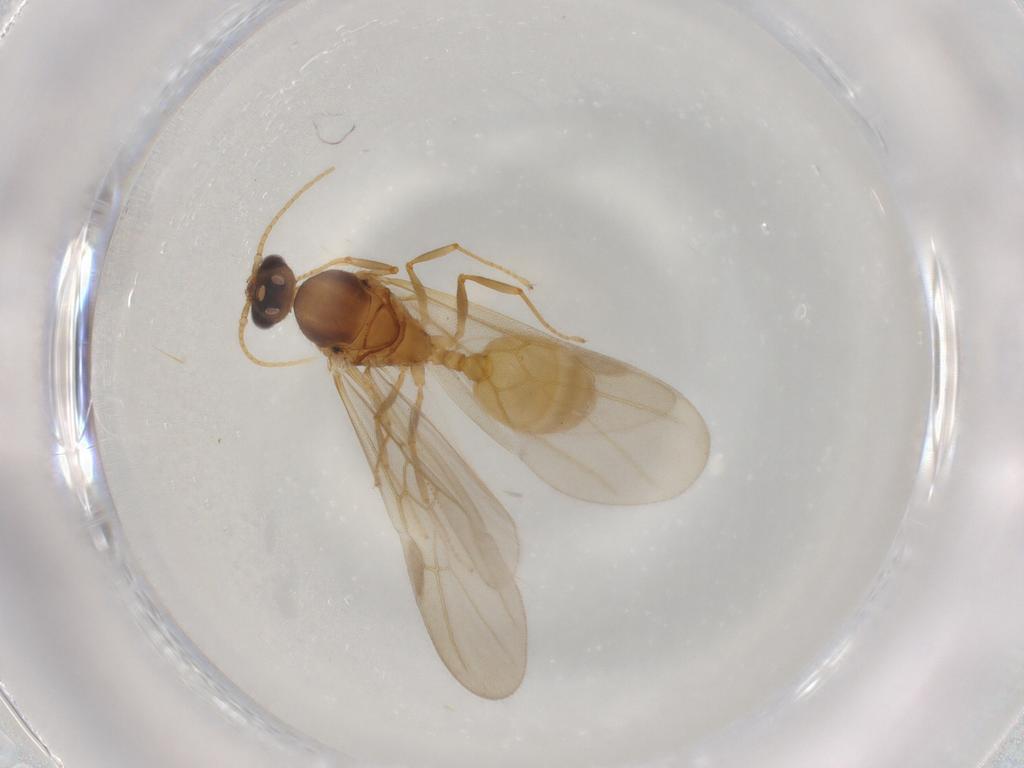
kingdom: Animalia
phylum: Arthropoda
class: Insecta
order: Hymenoptera
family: Formicidae
